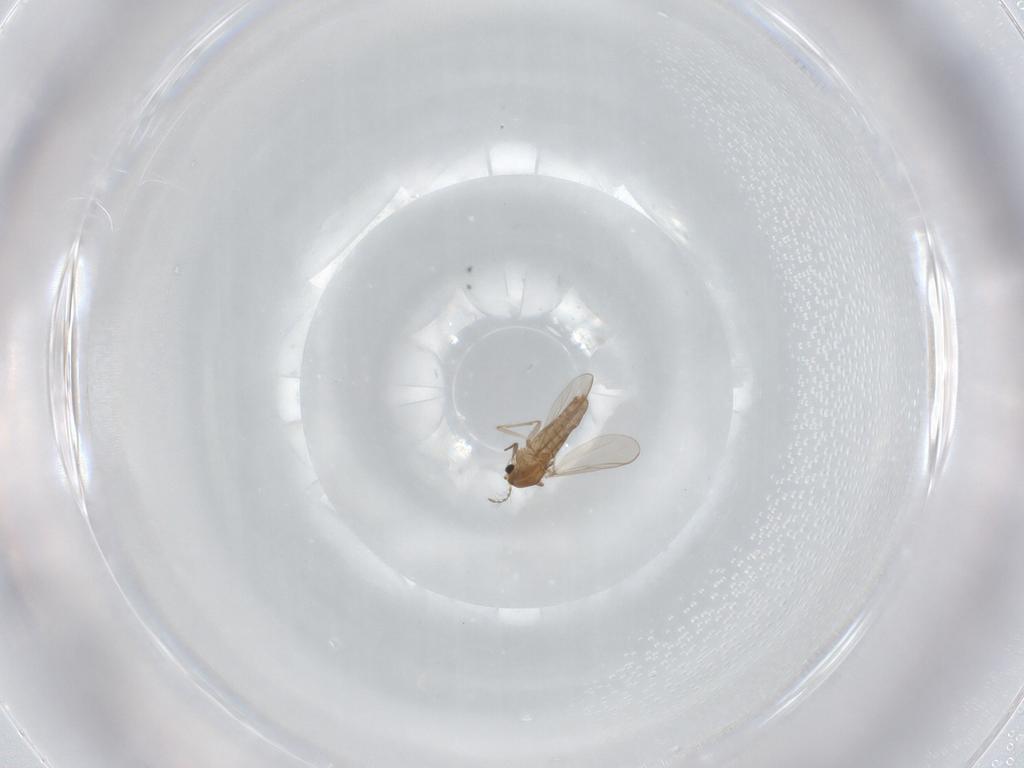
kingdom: Animalia
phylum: Arthropoda
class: Insecta
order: Diptera
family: Chironomidae
